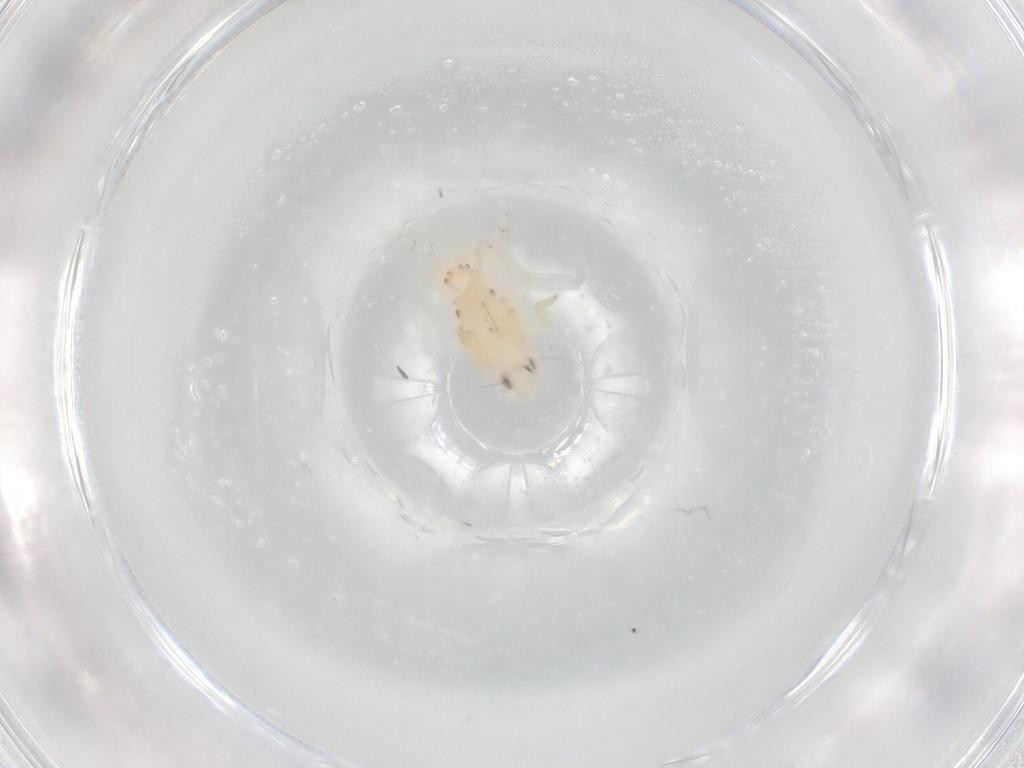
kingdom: Animalia
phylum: Arthropoda
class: Insecta
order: Hemiptera
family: Tropiduchidae
